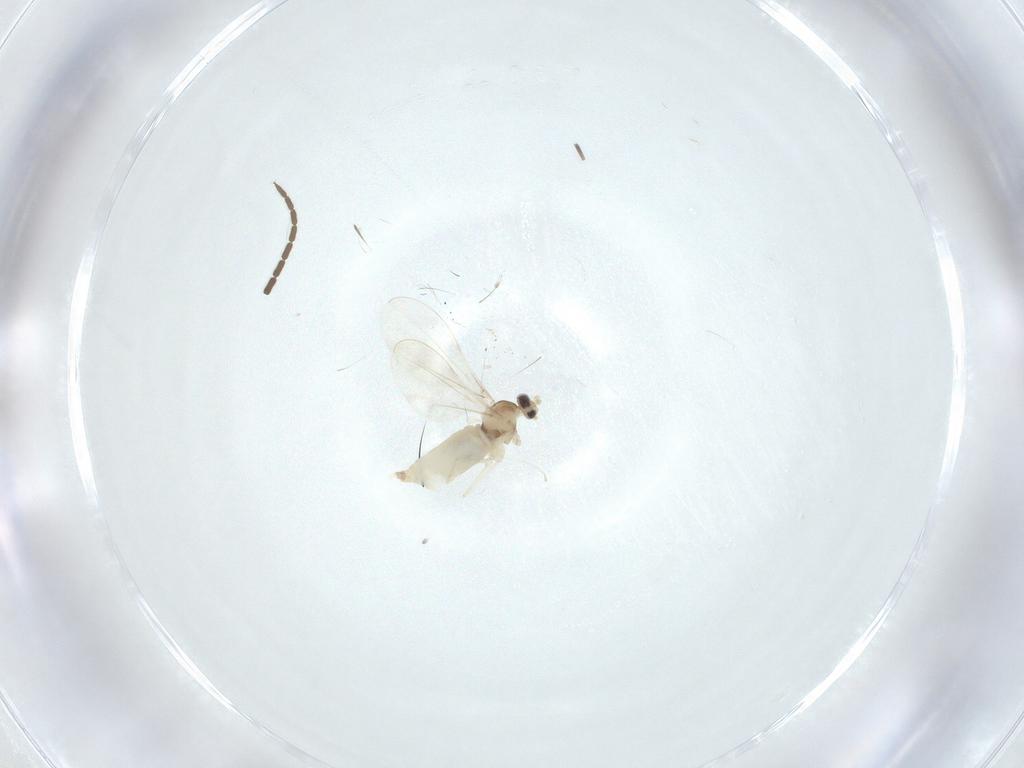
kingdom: Animalia
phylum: Arthropoda
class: Insecta
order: Diptera
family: Cecidomyiidae
